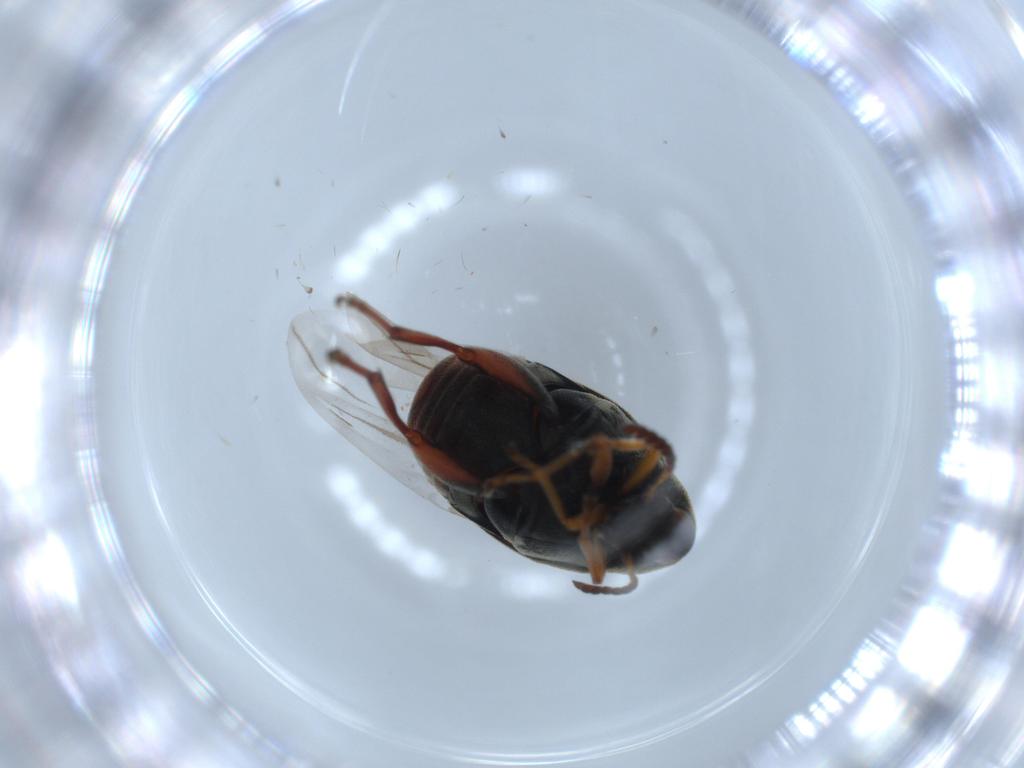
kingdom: Animalia
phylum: Arthropoda
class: Insecta
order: Coleoptera
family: Chrysomelidae
